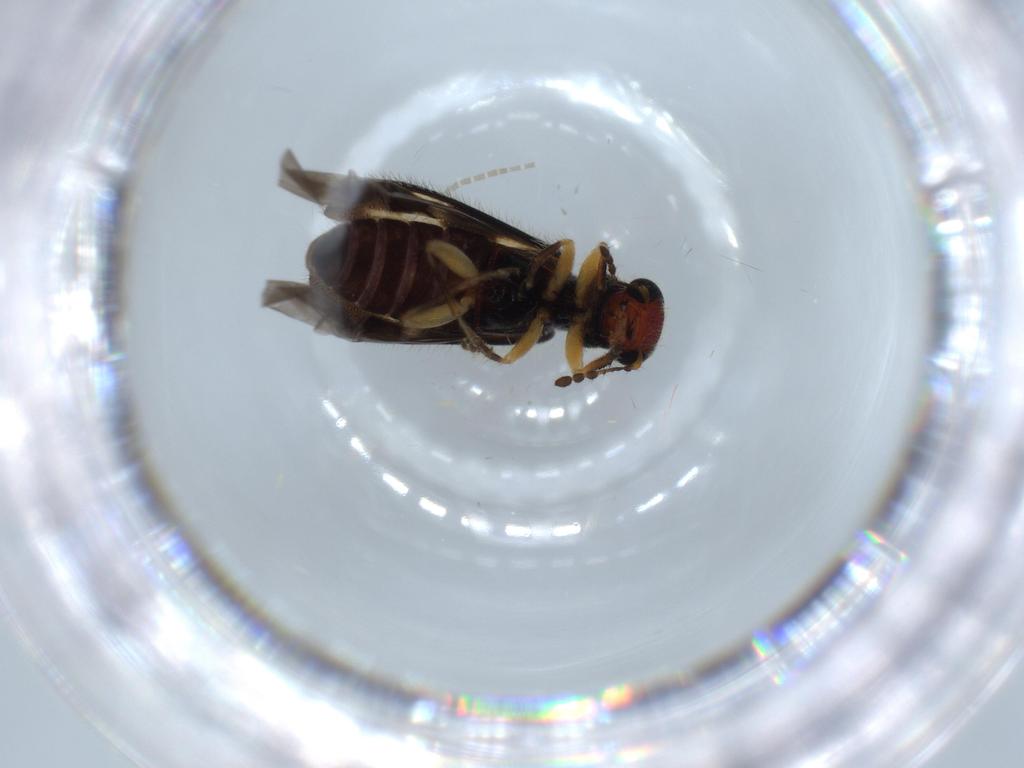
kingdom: Animalia
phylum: Arthropoda
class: Insecta
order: Coleoptera
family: Cleridae
